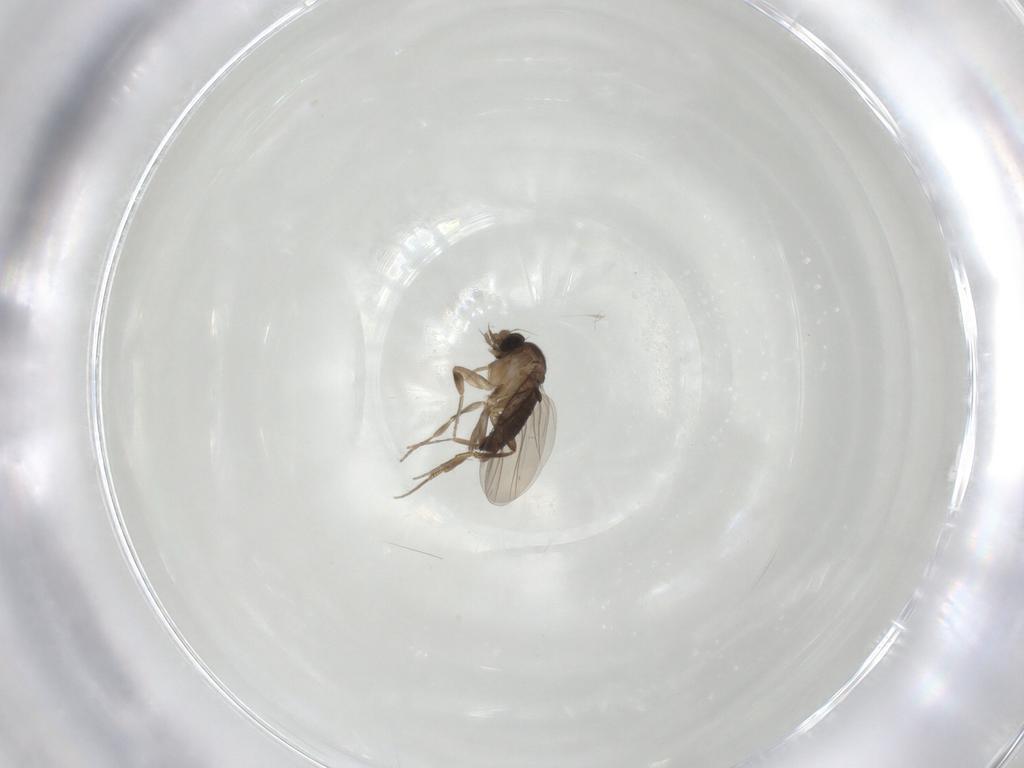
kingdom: Animalia
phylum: Arthropoda
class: Insecta
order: Diptera
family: Chironomidae
